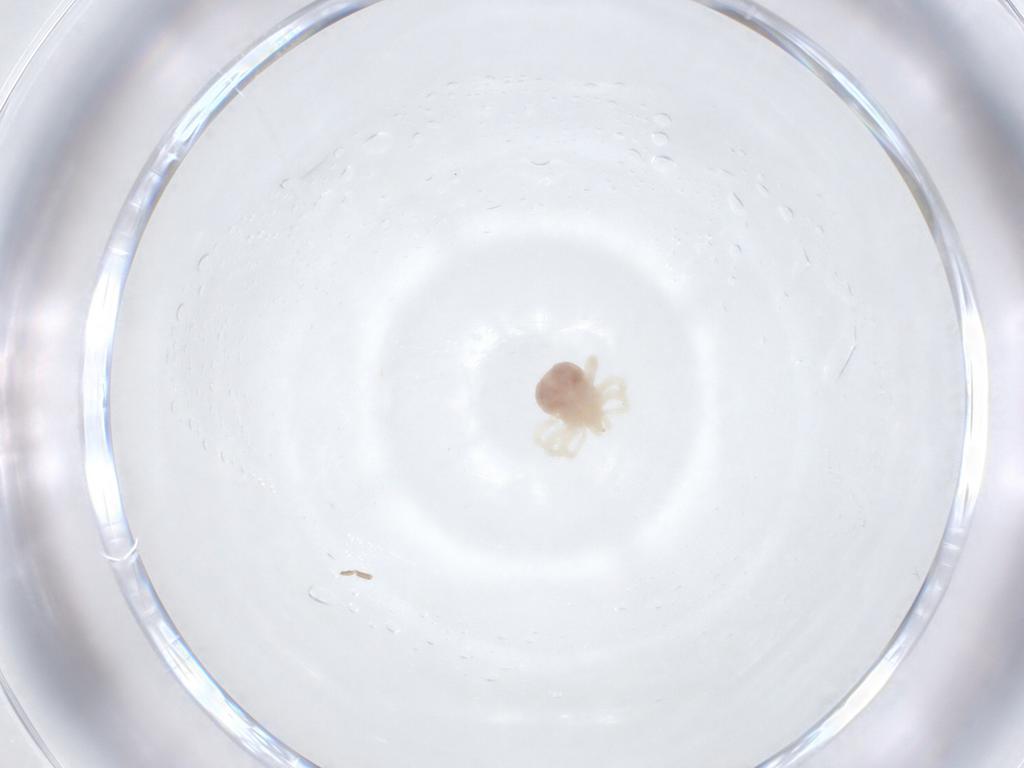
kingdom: Animalia
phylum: Arthropoda
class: Arachnida
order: Trombidiformes
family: Anystidae
